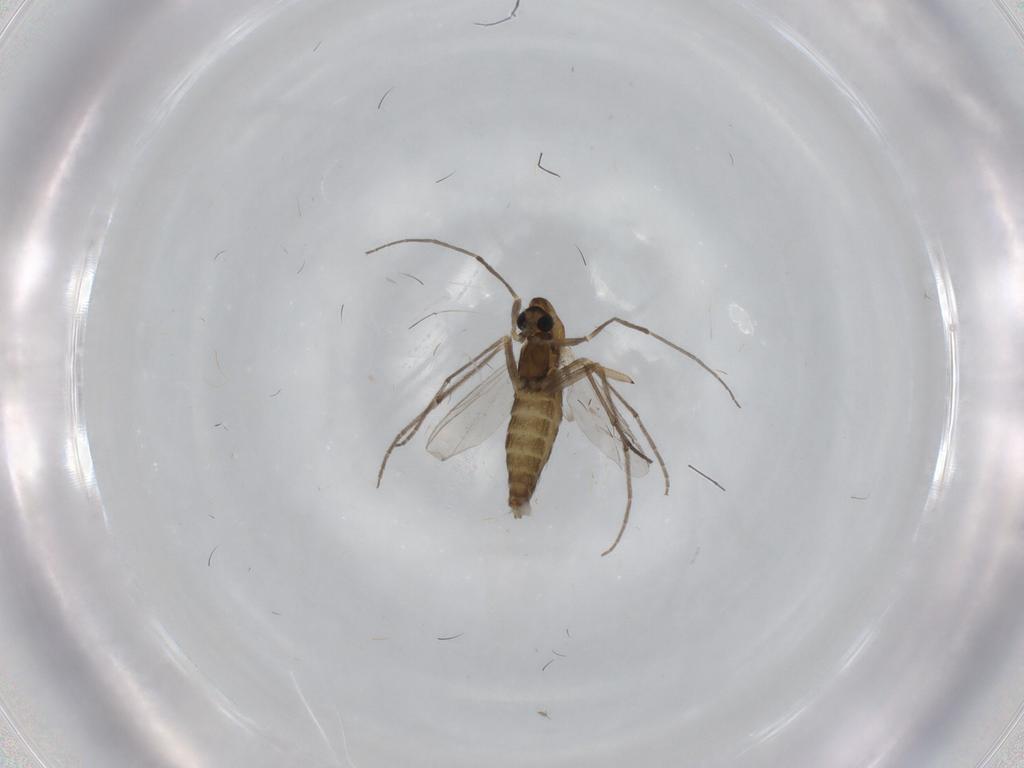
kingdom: Animalia
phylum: Arthropoda
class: Insecta
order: Diptera
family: Chironomidae
